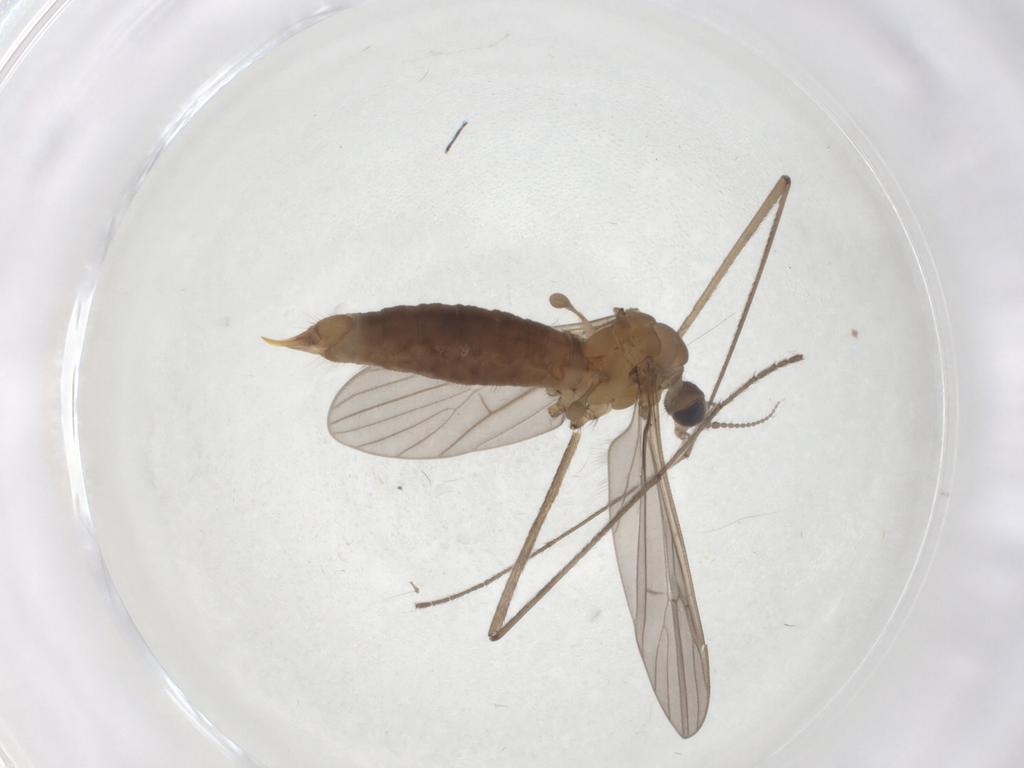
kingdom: Animalia
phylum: Arthropoda
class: Insecta
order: Diptera
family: Limoniidae
